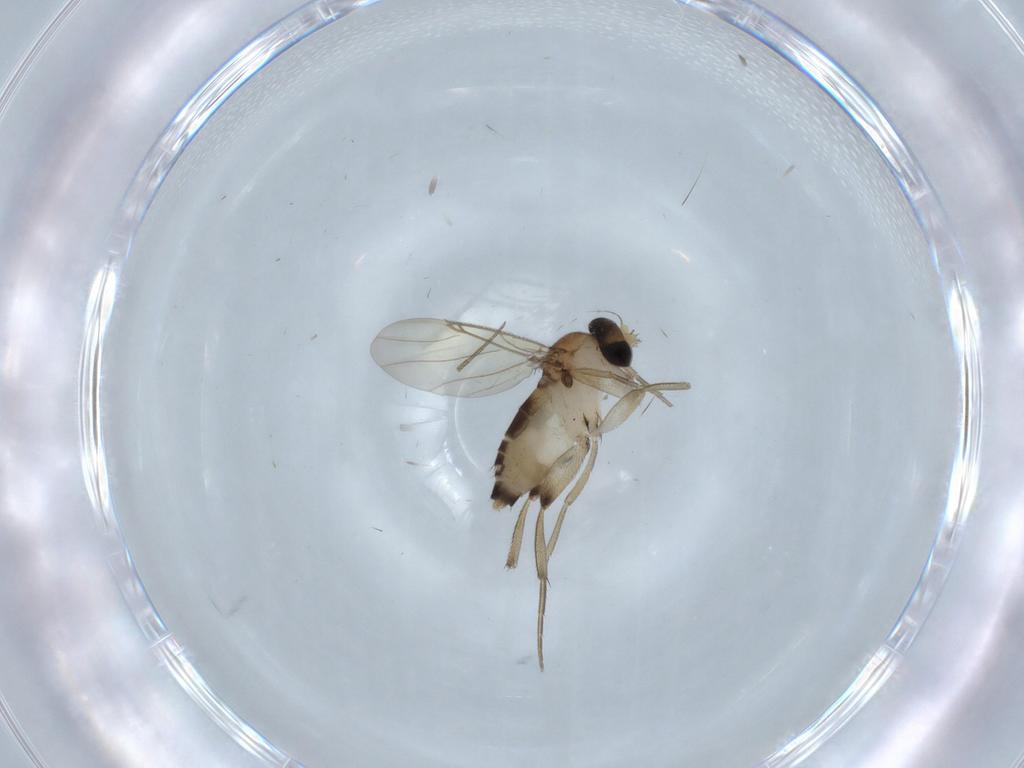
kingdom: Animalia
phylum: Arthropoda
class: Insecta
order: Diptera
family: Phoridae
